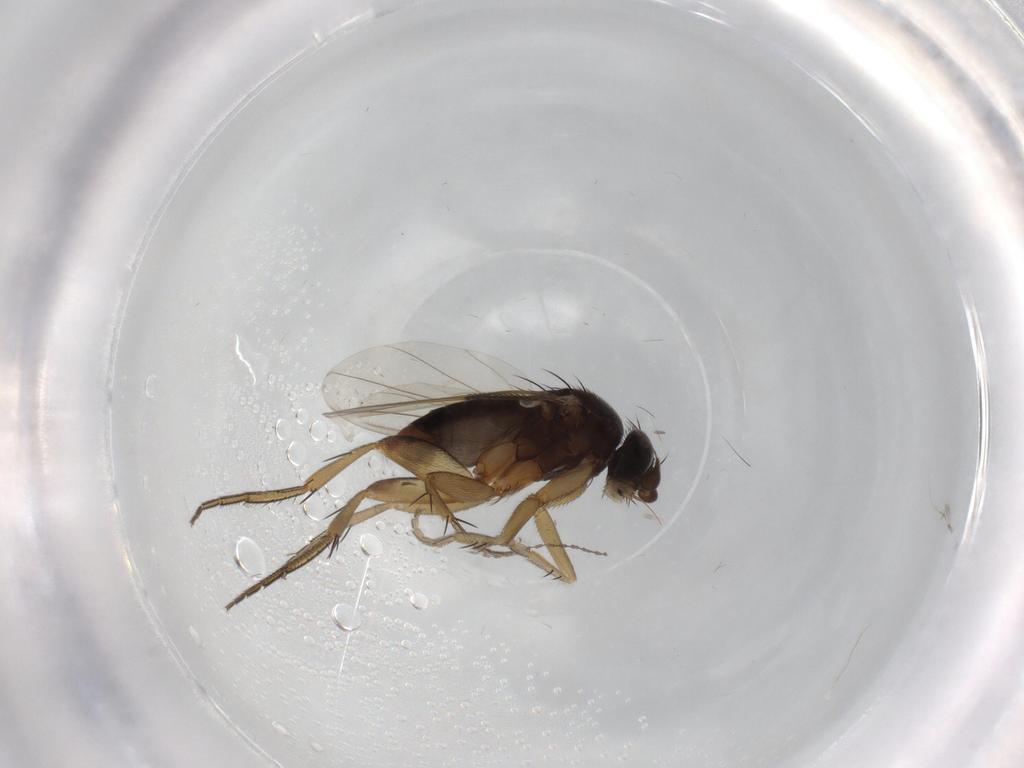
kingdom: Animalia
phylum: Arthropoda
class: Insecta
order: Diptera
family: Phoridae
